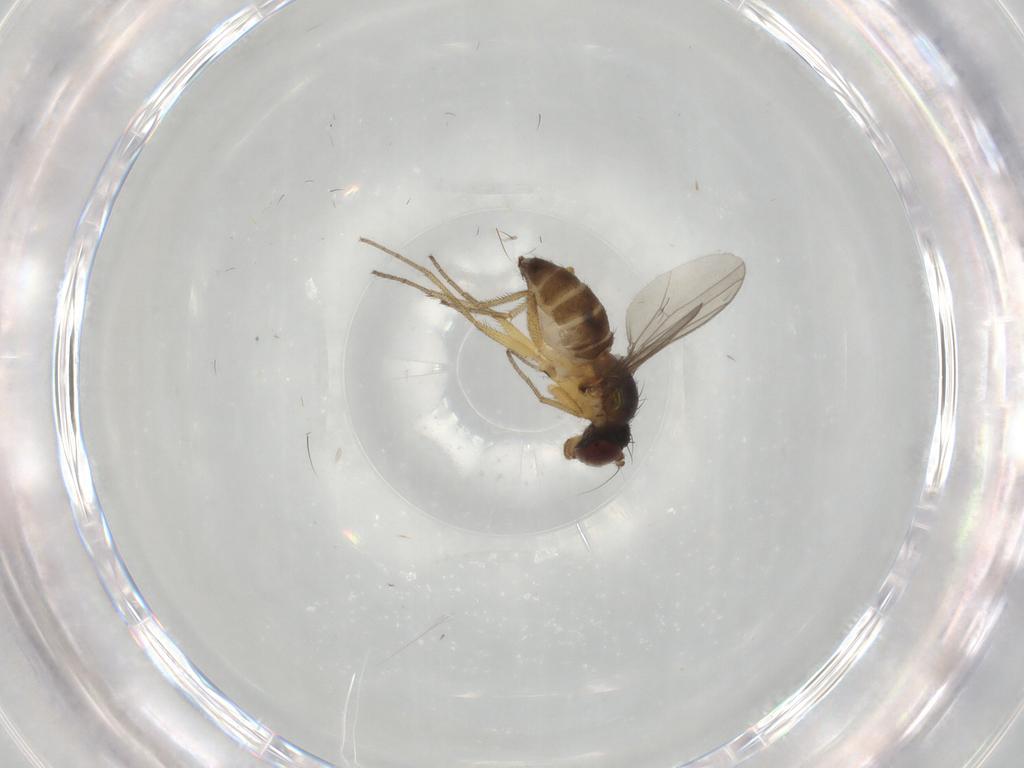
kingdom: Animalia
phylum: Arthropoda
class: Insecta
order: Diptera
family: Dolichopodidae
